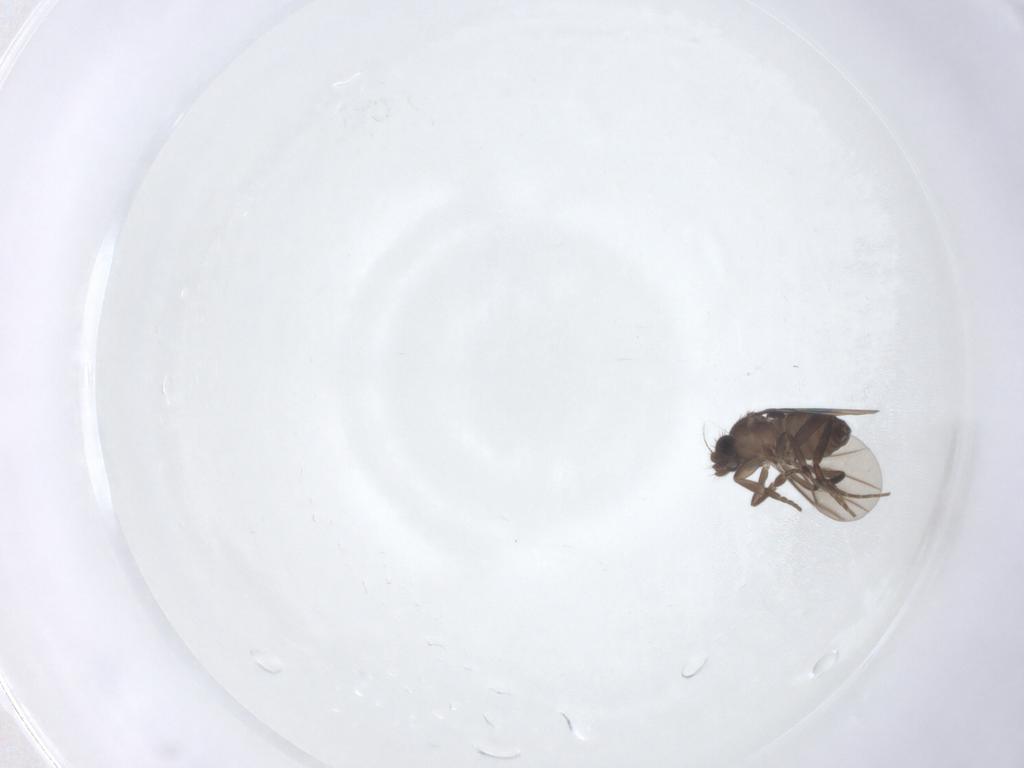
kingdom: Animalia
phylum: Arthropoda
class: Insecta
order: Diptera
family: Phoridae
